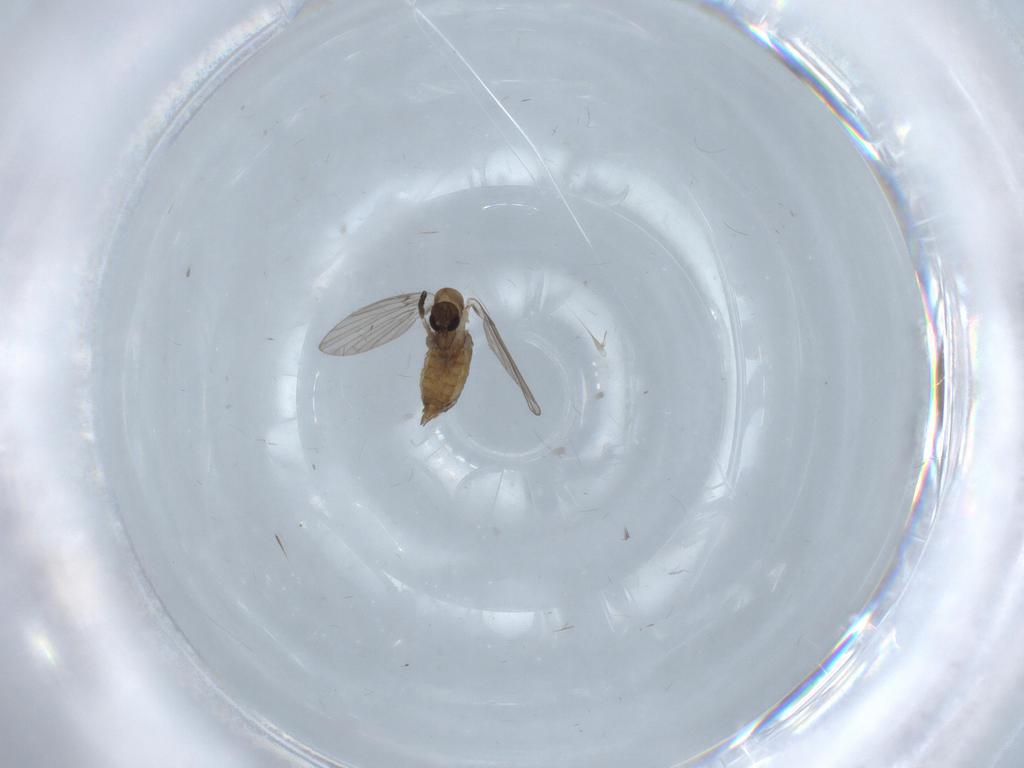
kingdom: Animalia
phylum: Arthropoda
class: Insecta
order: Diptera
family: Psychodidae
